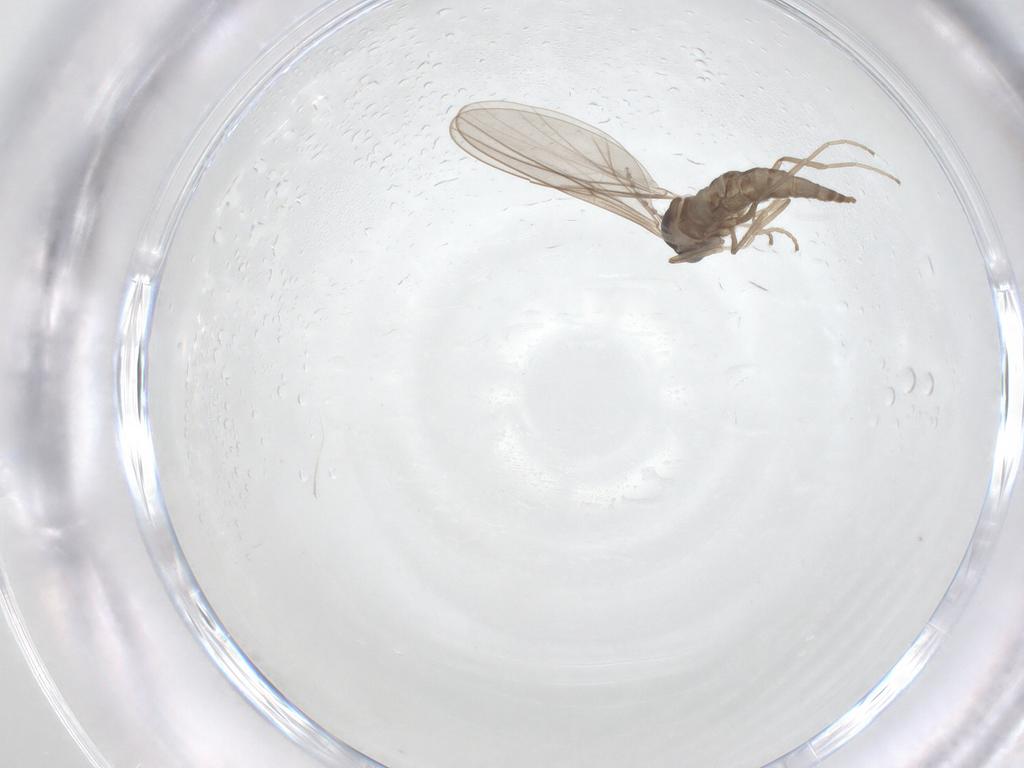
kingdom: Animalia
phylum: Arthropoda
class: Insecta
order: Diptera
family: Cecidomyiidae
